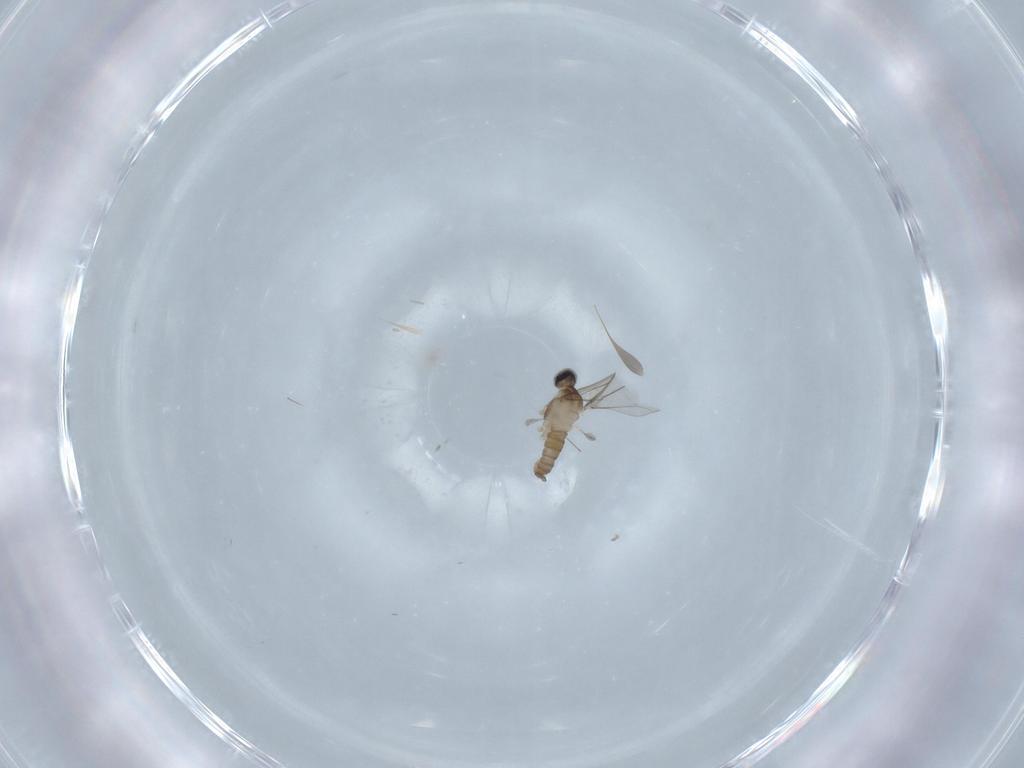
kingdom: Animalia
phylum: Arthropoda
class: Insecta
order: Diptera
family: Cecidomyiidae
